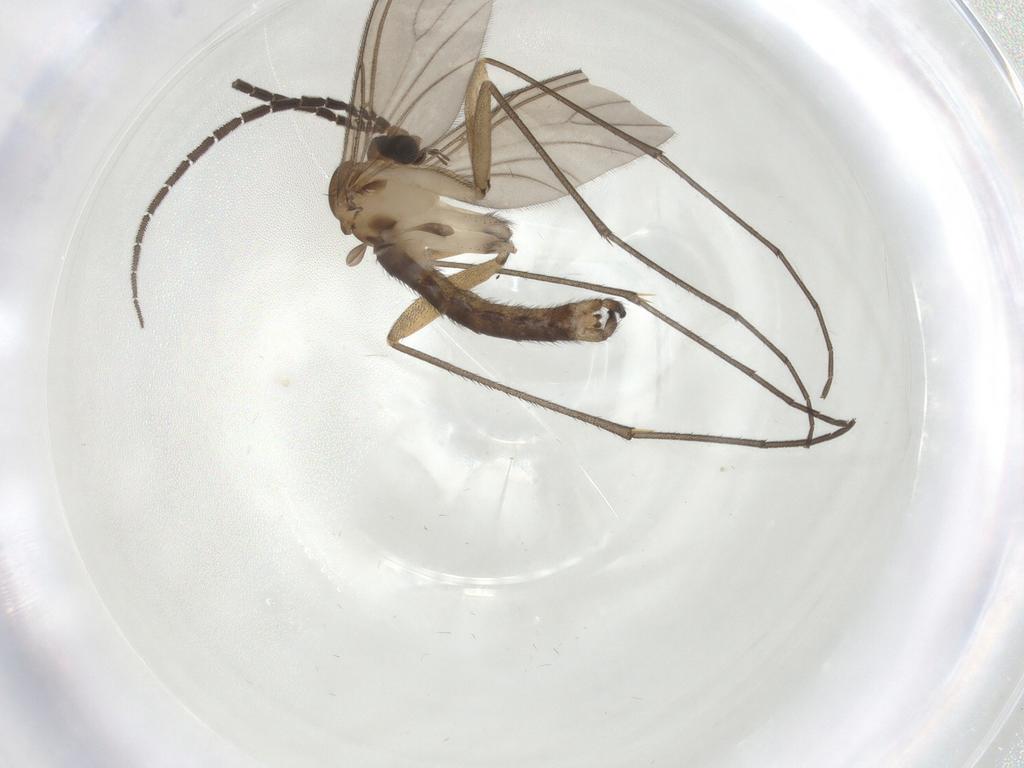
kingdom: Animalia
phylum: Arthropoda
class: Insecta
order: Diptera
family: Sciaridae
